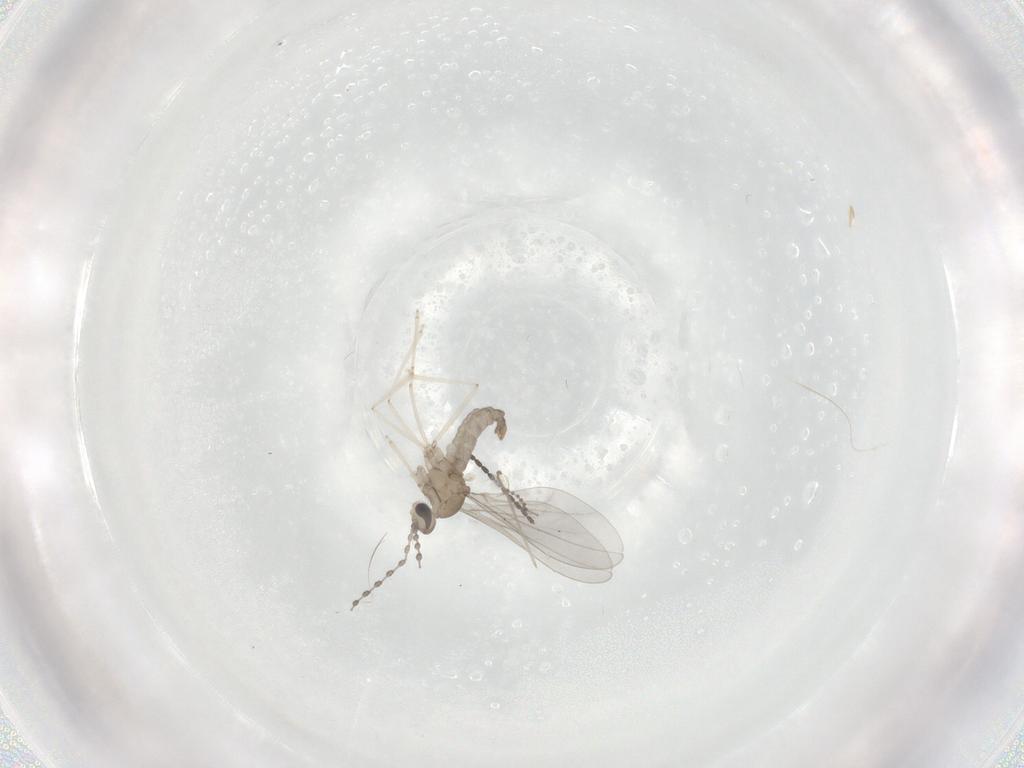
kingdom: Animalia
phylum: Arthropoda
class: Insecta
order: Diptera
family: Cecidomyiidae
